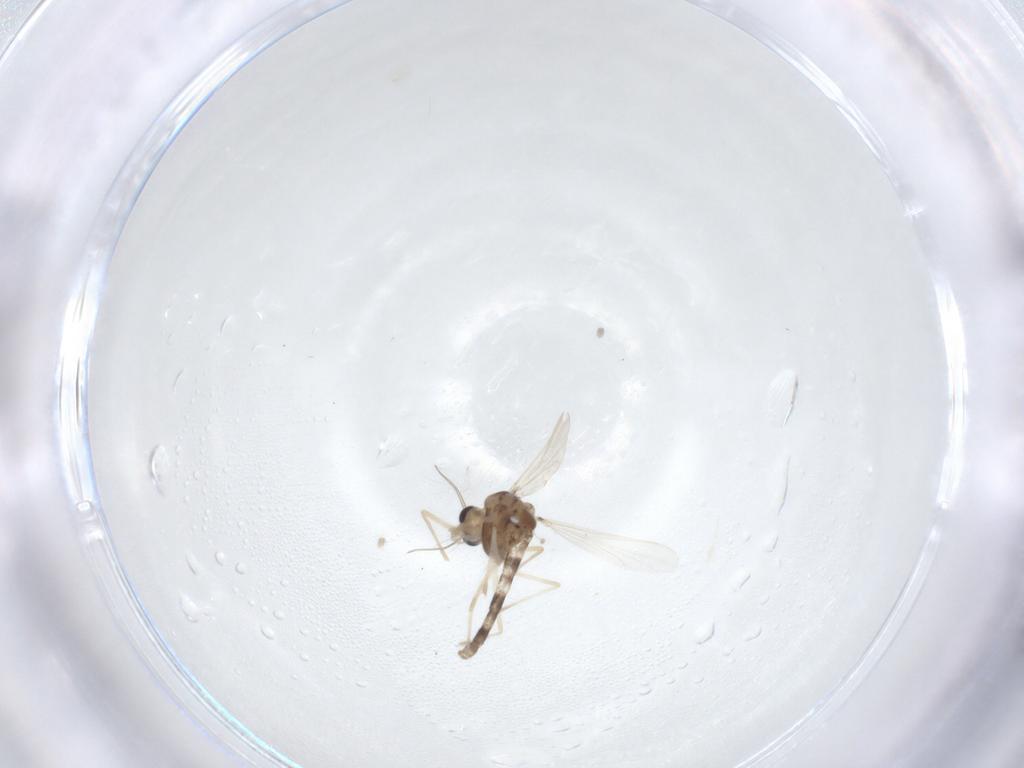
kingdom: Animalia
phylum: Arthropoda
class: Insecta
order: Diptera
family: Chironomidae
